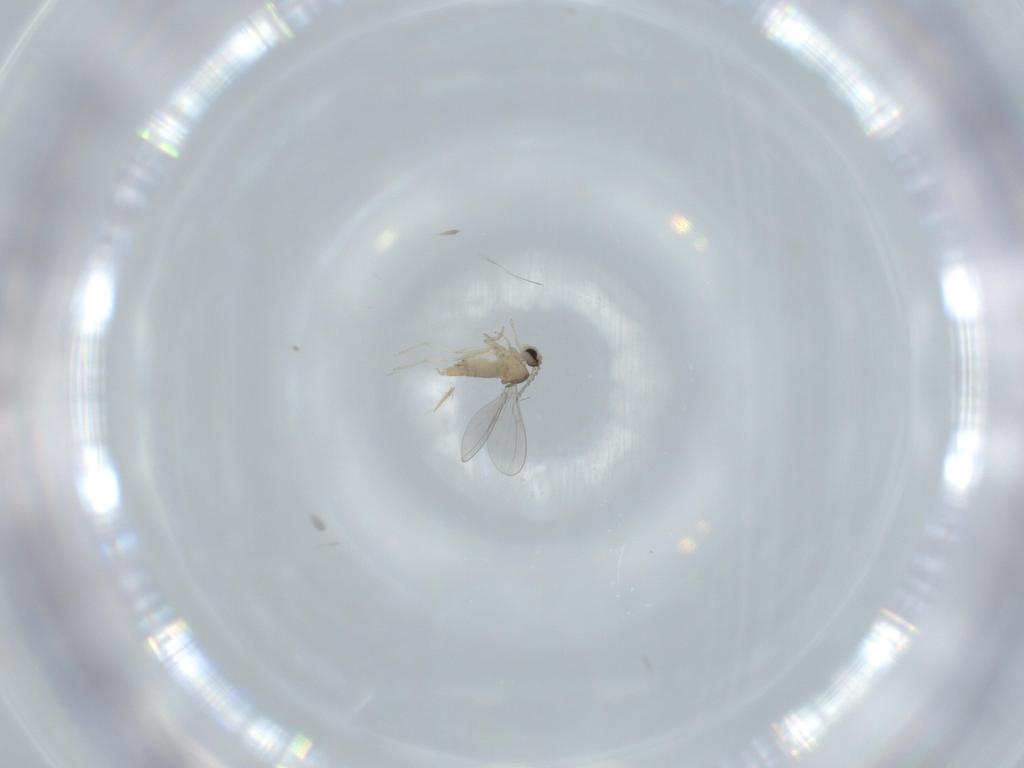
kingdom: Animalia
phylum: Arthropoda
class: Insecta
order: Diptera
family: Cecidomyiidae
